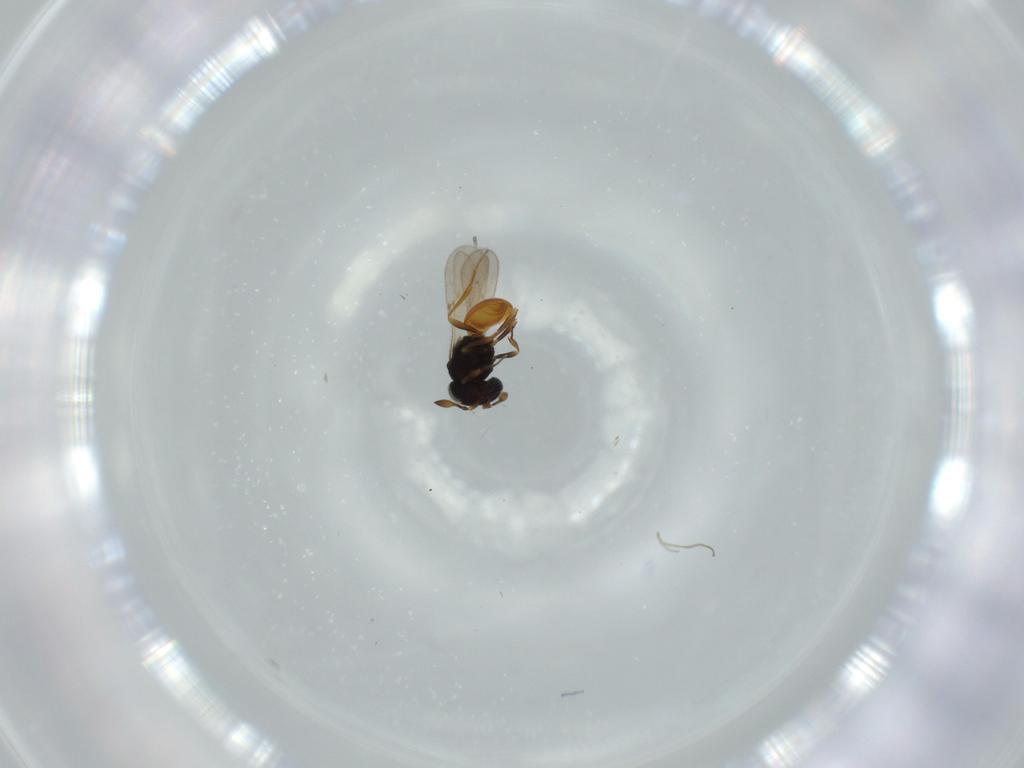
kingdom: Animalia
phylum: Arthropoda
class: Insecta
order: Hymenoptera
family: Scelionidae
